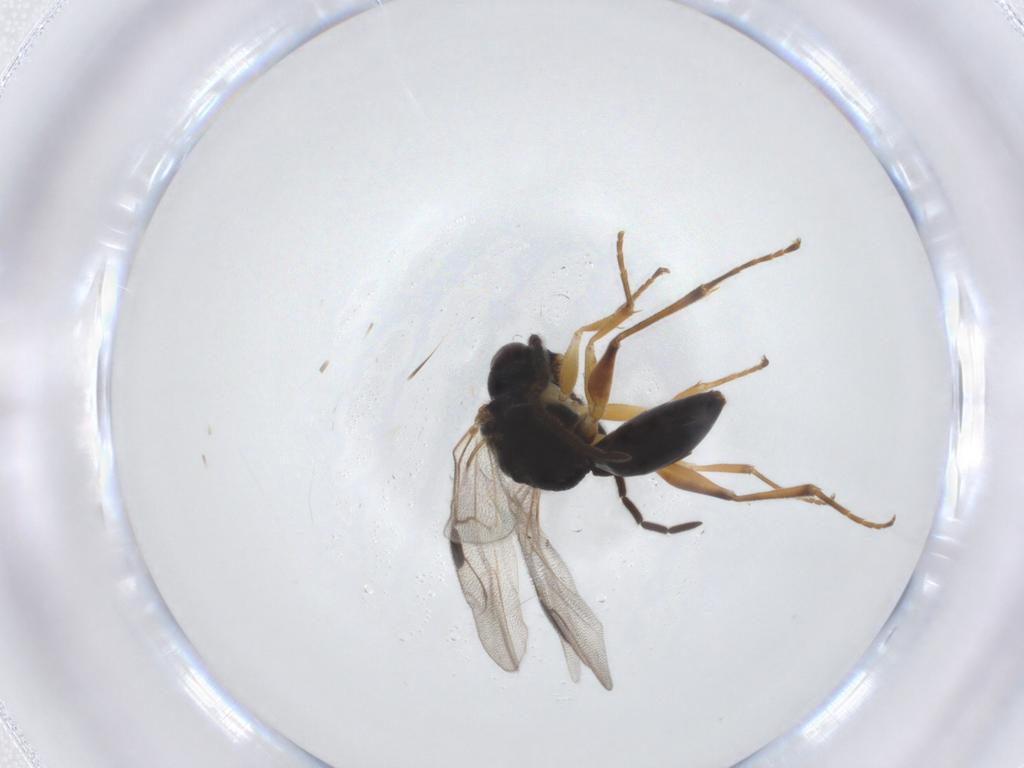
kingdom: Animalia
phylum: Arthropoda
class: Insecta
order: Hymenoptera
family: Dryinidae
